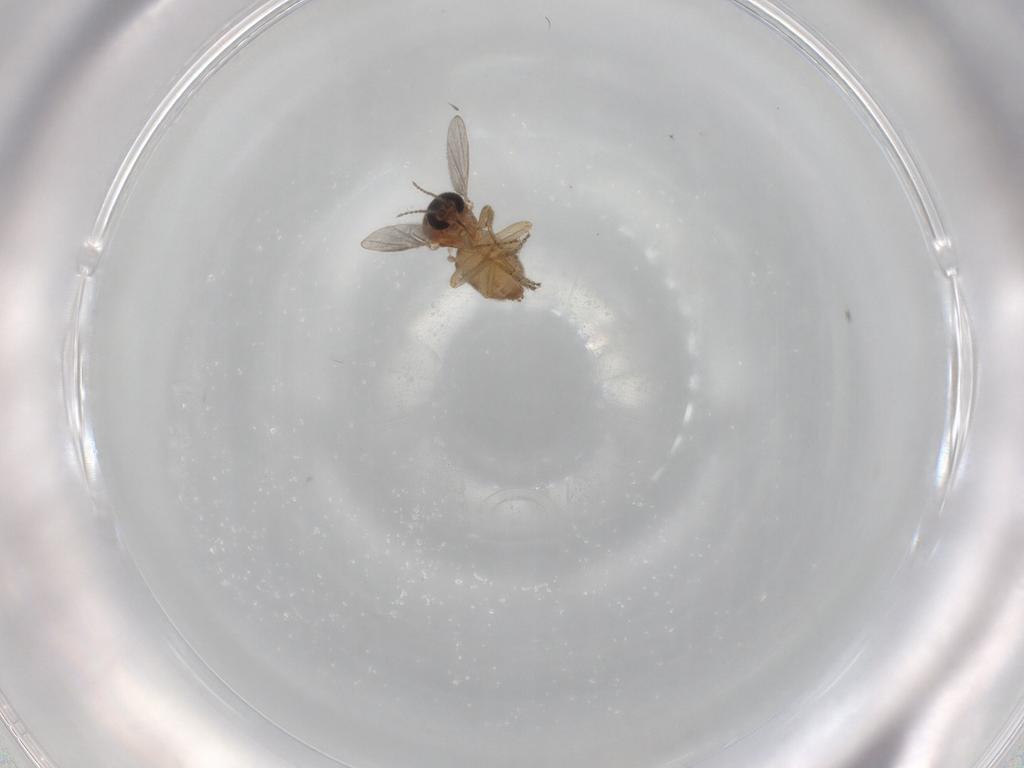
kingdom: Animalia
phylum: Arthropoda
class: Insecta
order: Diptera
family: Ceratopogonidae
